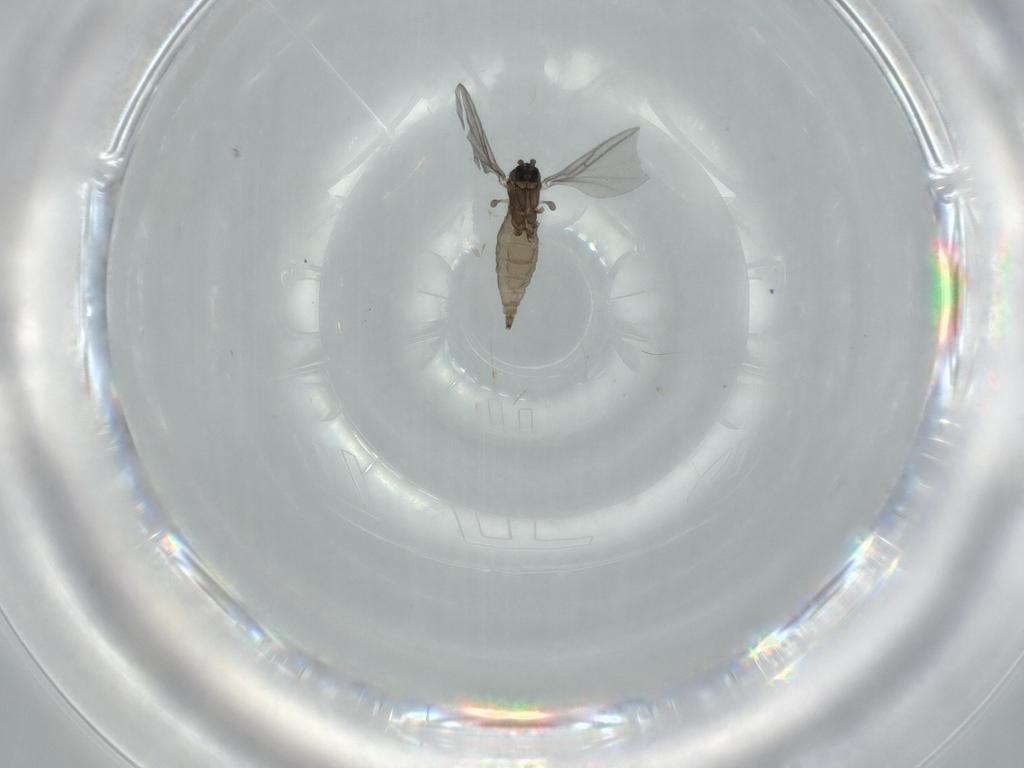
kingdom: Animalia
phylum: Arthropoda
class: Insecta
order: Diptera
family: Sciaridae
